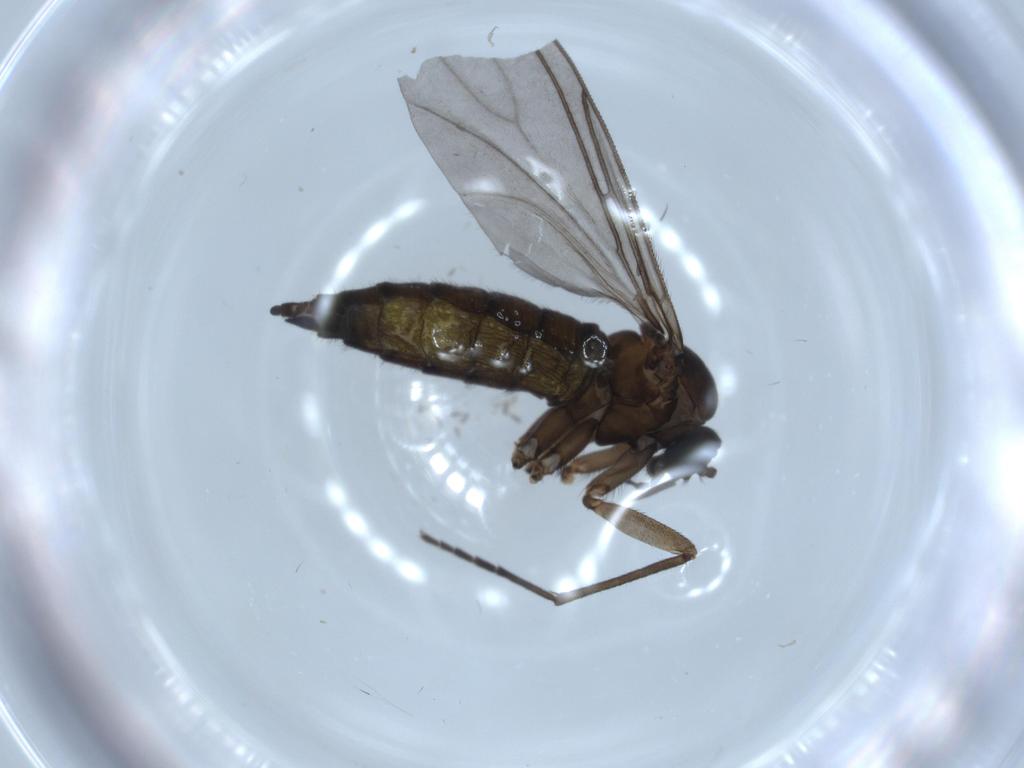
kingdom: Animalia
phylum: Arthropoda
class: Insecta
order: Diptera
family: Sciaridae
